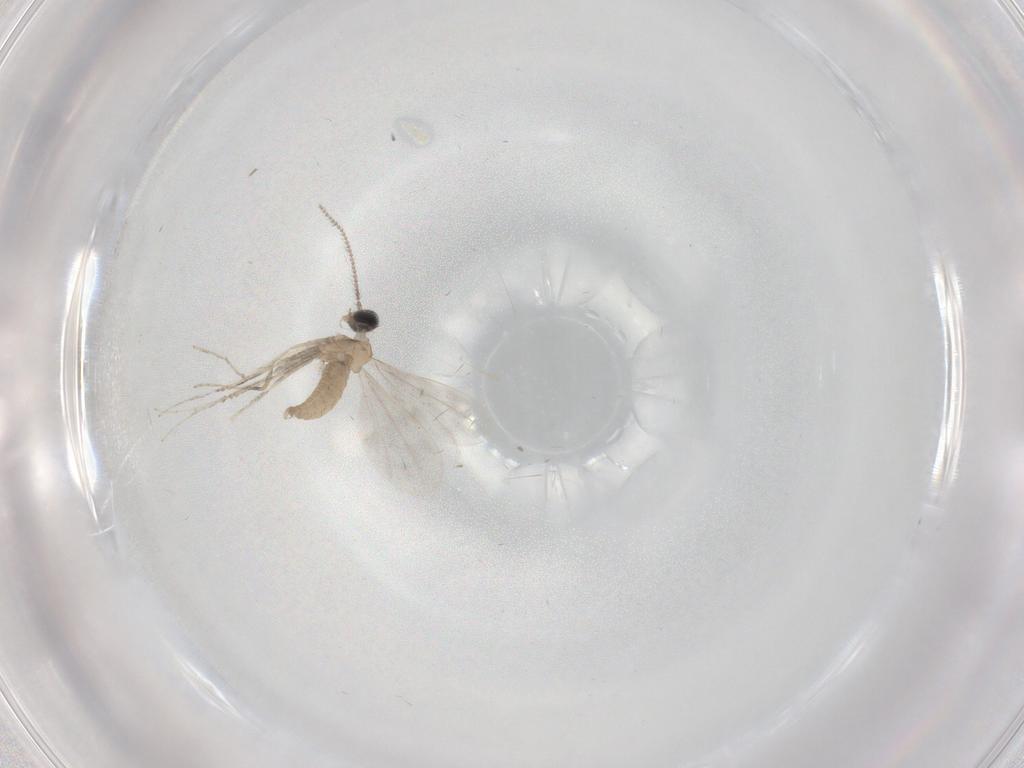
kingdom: Animalia
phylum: Arthropoda
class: Insecta
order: Diptera
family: Cecidomyiidae
